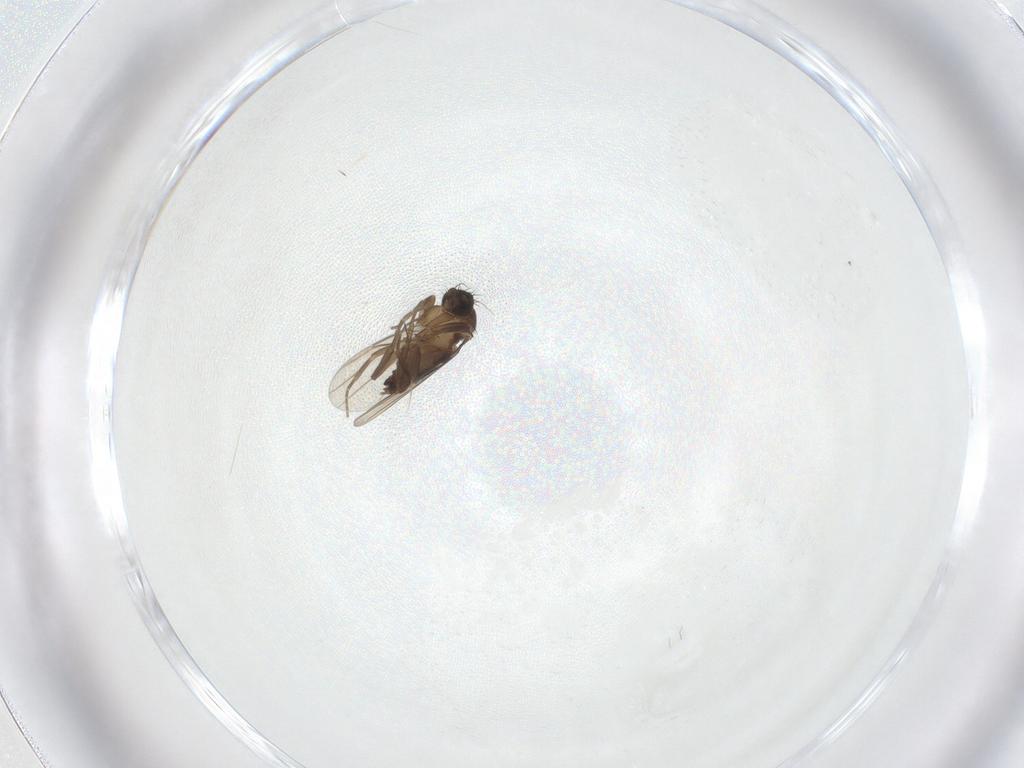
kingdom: Animalia
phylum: Arthropoda
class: Insecta
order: Diptera
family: Phoridae
